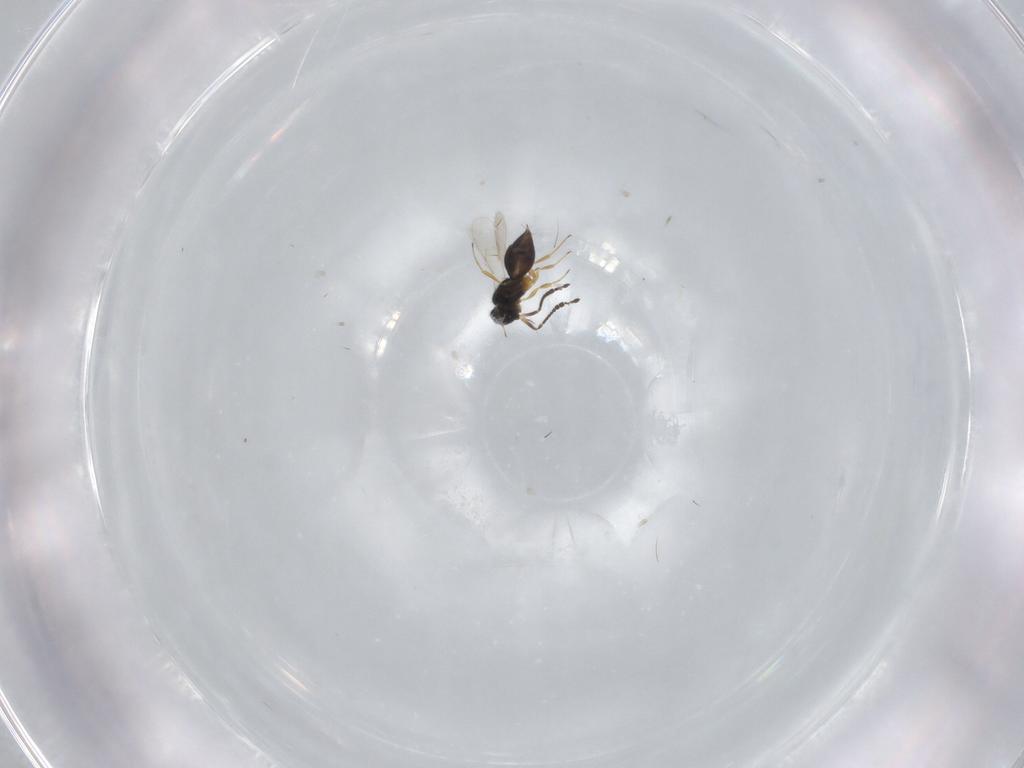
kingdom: Animalia
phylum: Arthropoda
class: Insecta
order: Hymenoptera
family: Scelionidae
